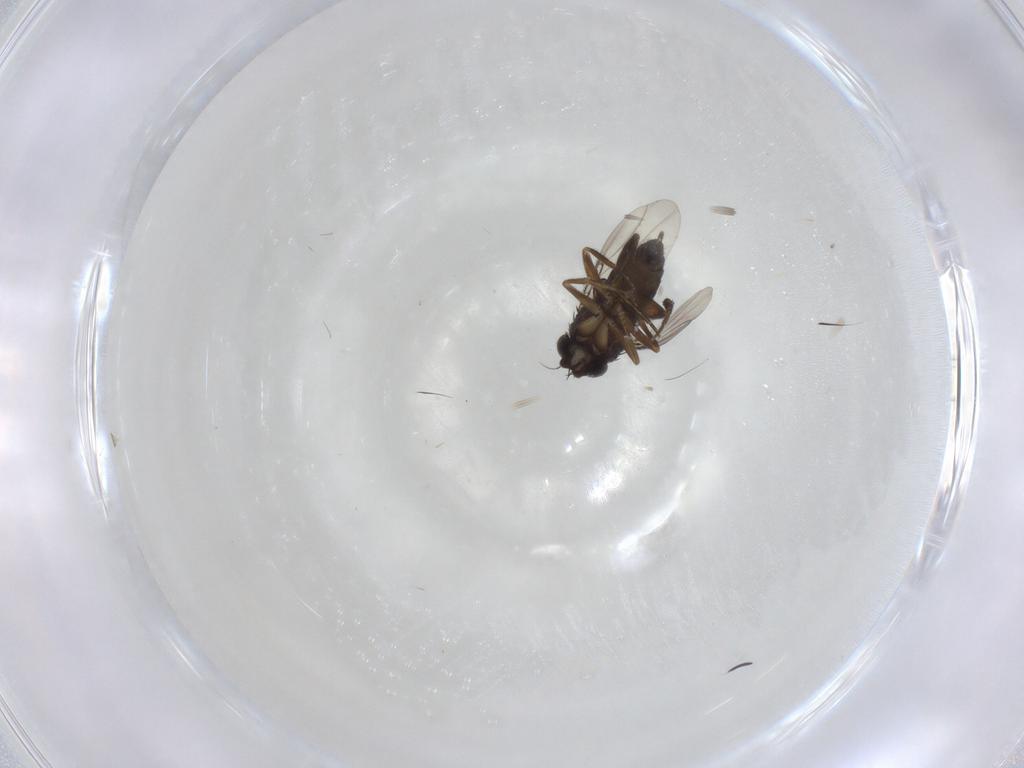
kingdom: Animalia
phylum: Arthropoda
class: Insecta
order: Diptera
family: Phoridae
